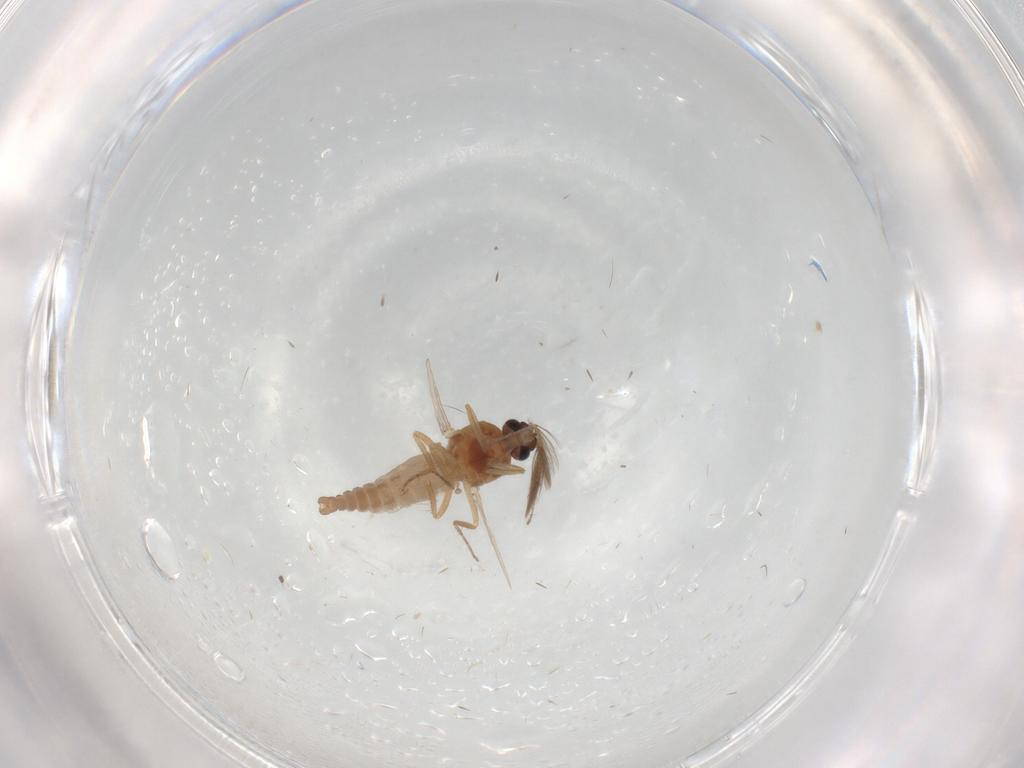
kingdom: Animalia
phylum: Arthropoda
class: Insecta
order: Diptera
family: Ceratopogonidae
